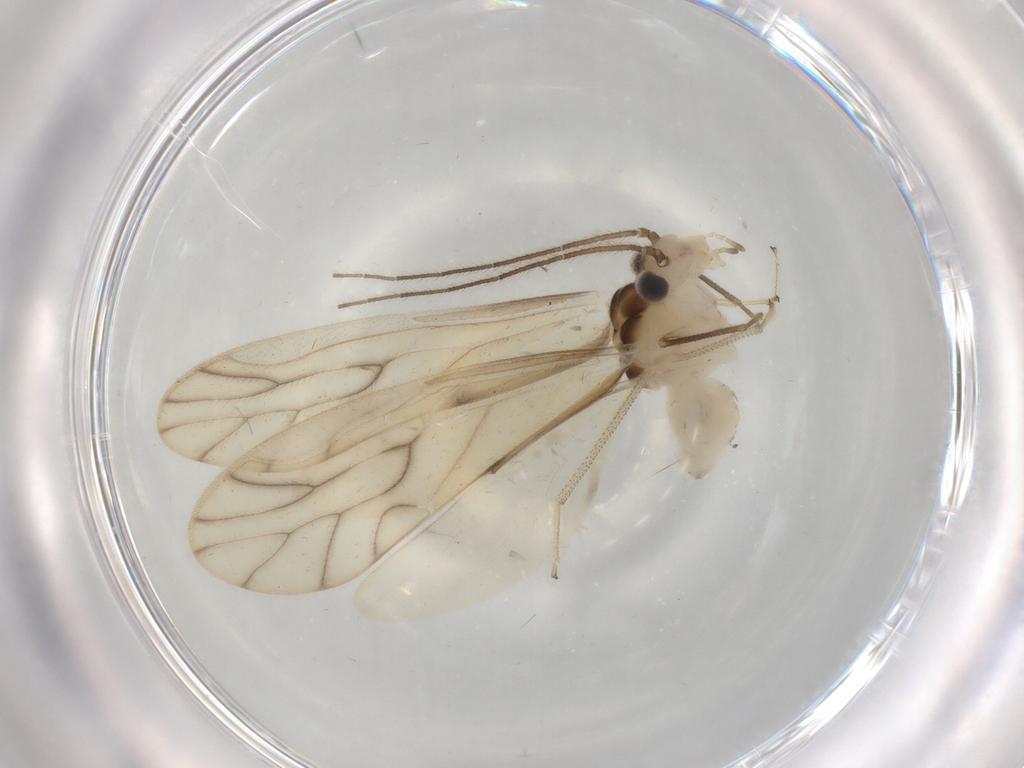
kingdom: Animalia
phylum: Arthropoda
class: Insecta
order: Psocodea
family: Caeciliusidae
